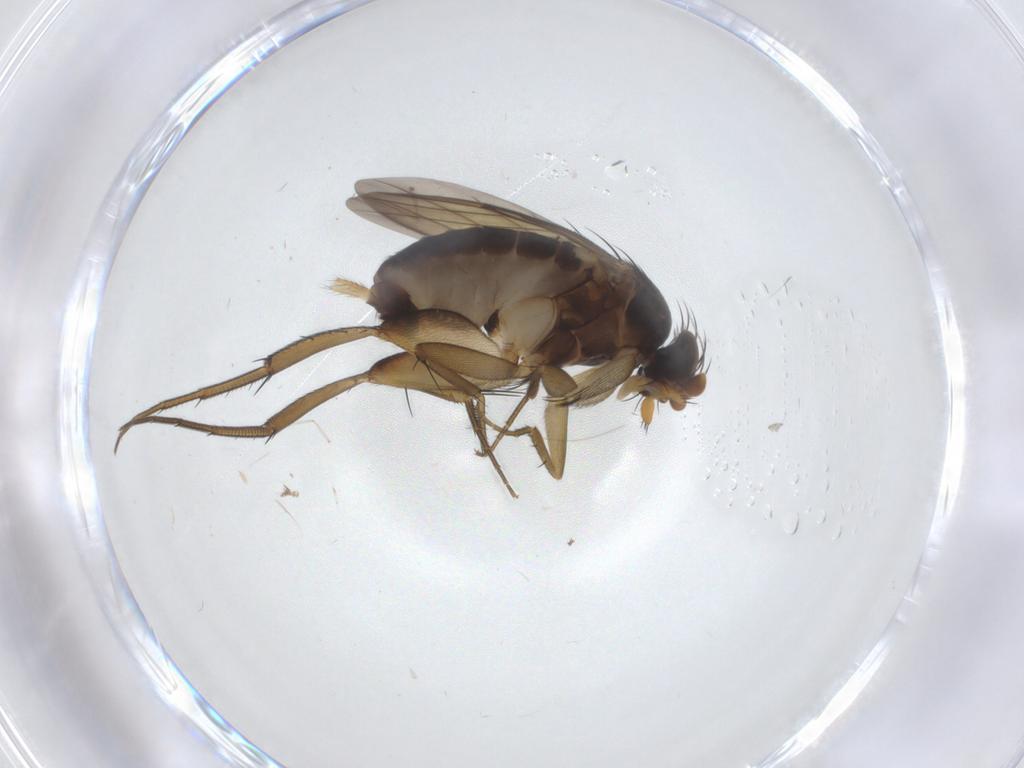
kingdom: Animalia
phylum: Arthropoda
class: Insecta
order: Diptera
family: Phoridae
